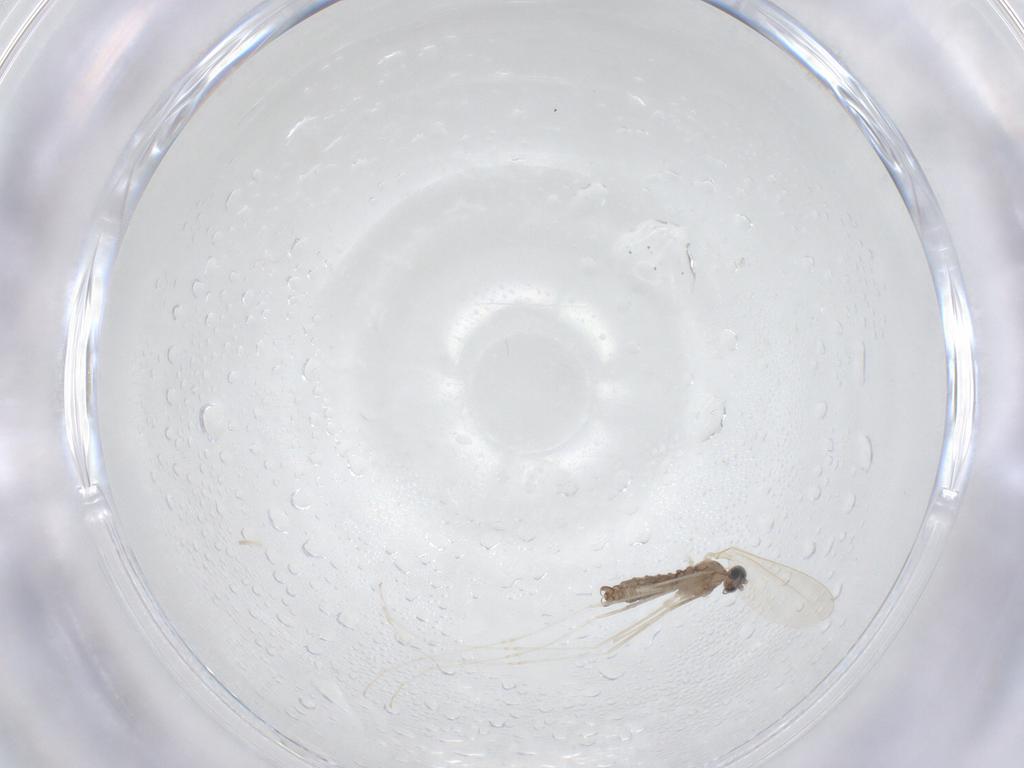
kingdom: Animalia
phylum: Arthropoda
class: Insecta
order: Diptera
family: Cecidomyiidae
